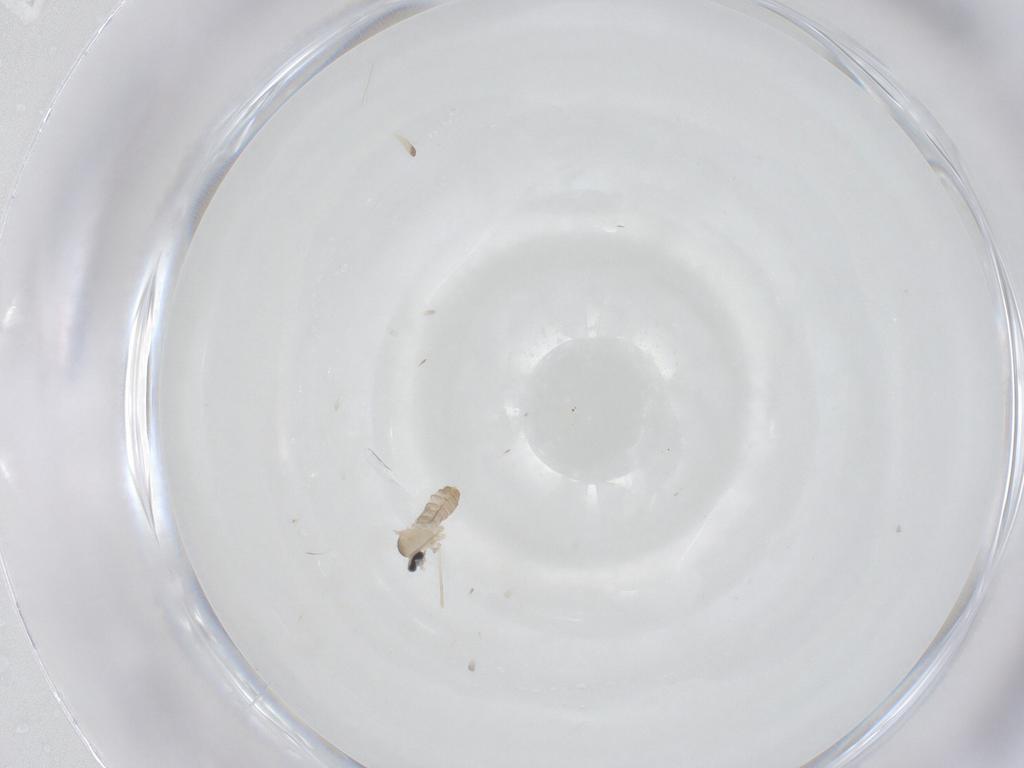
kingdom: Animalia
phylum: Arthropoda
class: Insecta
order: Diptera
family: Cecidomyiidae
